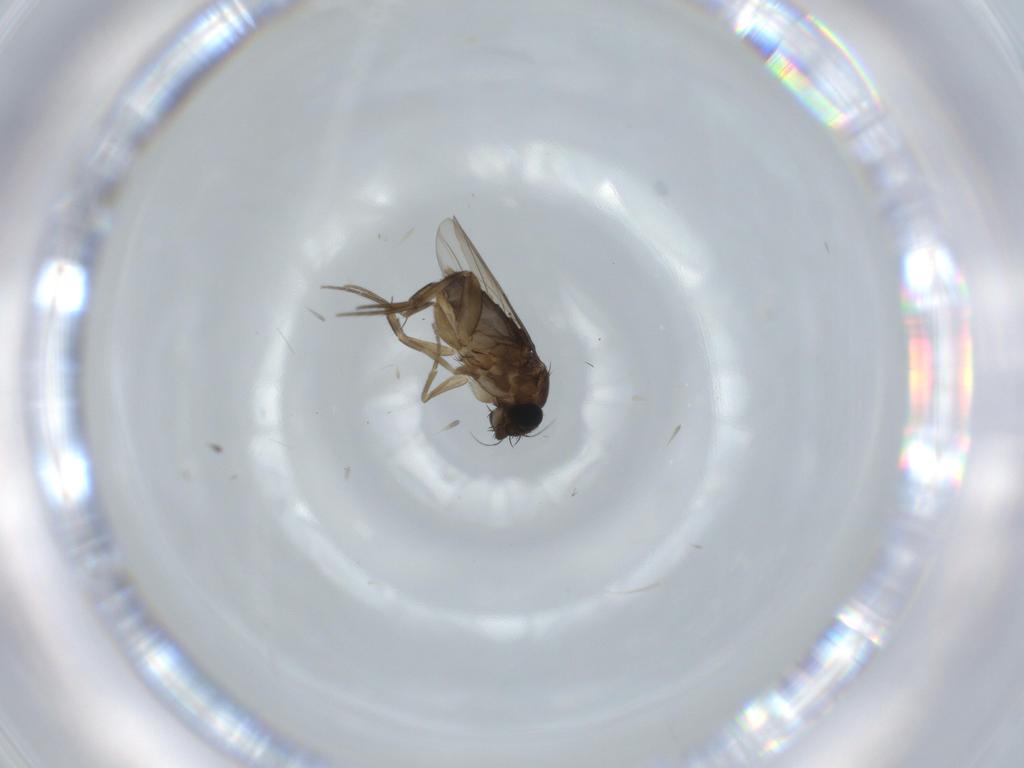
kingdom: Animalia
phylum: Arthropoda
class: Insecta
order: Diptera
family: Phoridae
